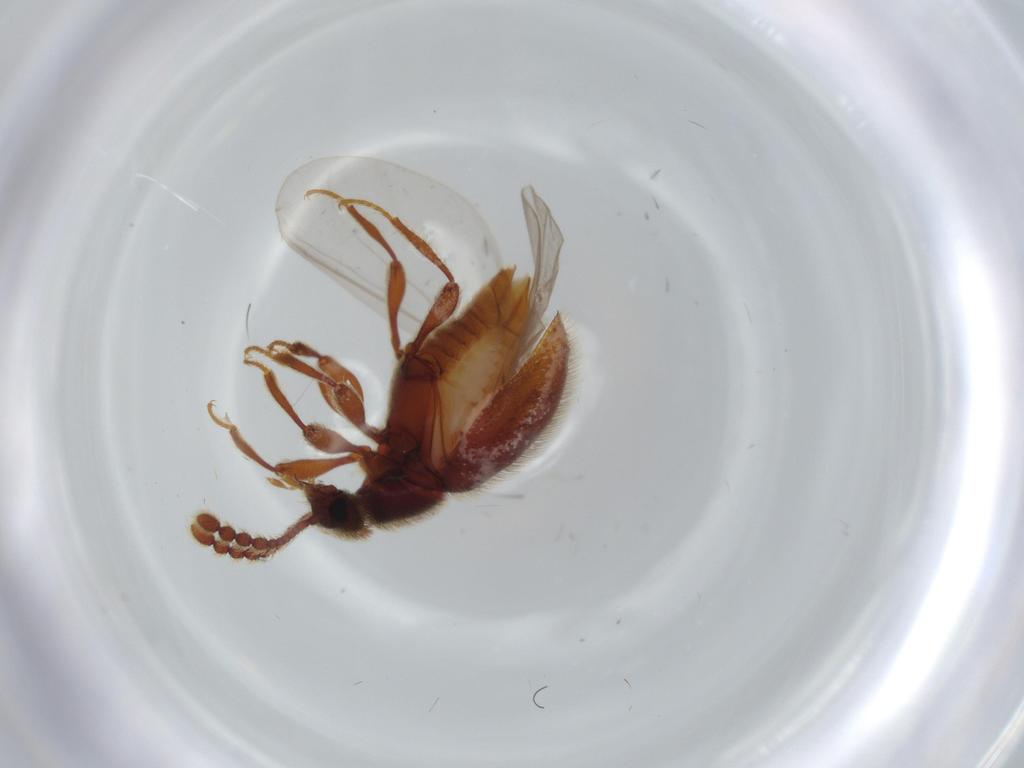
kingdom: Animalia
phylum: Arthropoda
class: Insecta
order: Coleoptera
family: Staphylinidae
